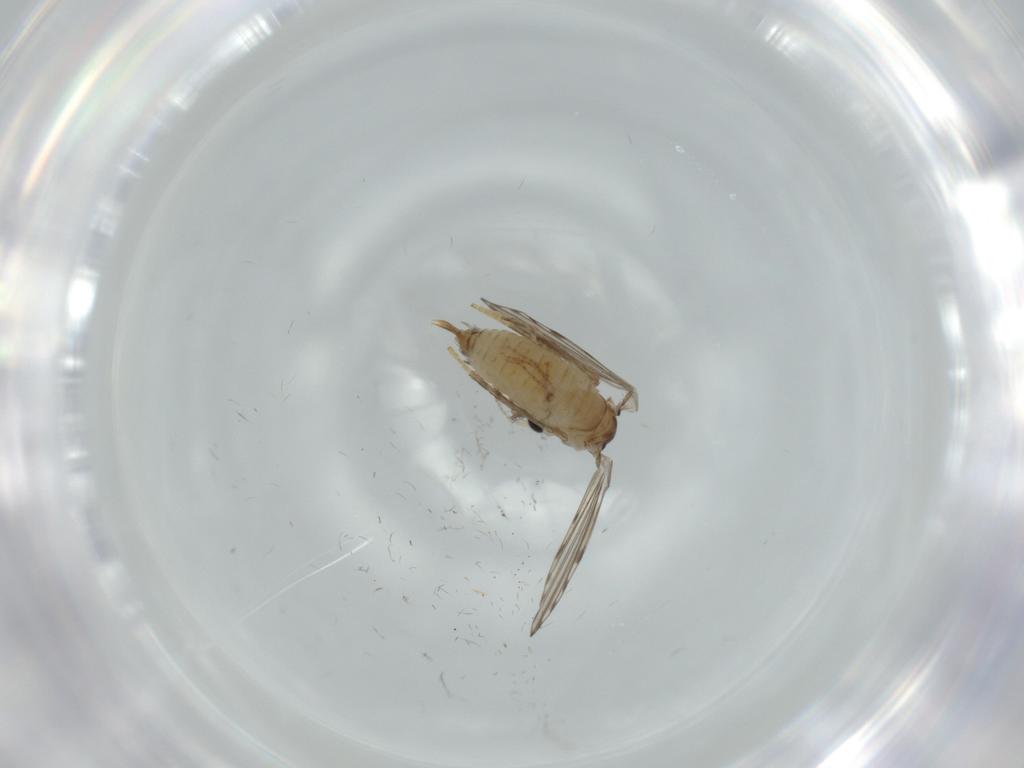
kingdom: Animalia
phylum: Arthropoda
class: Insecta
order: Diptera
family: Psychodidae
